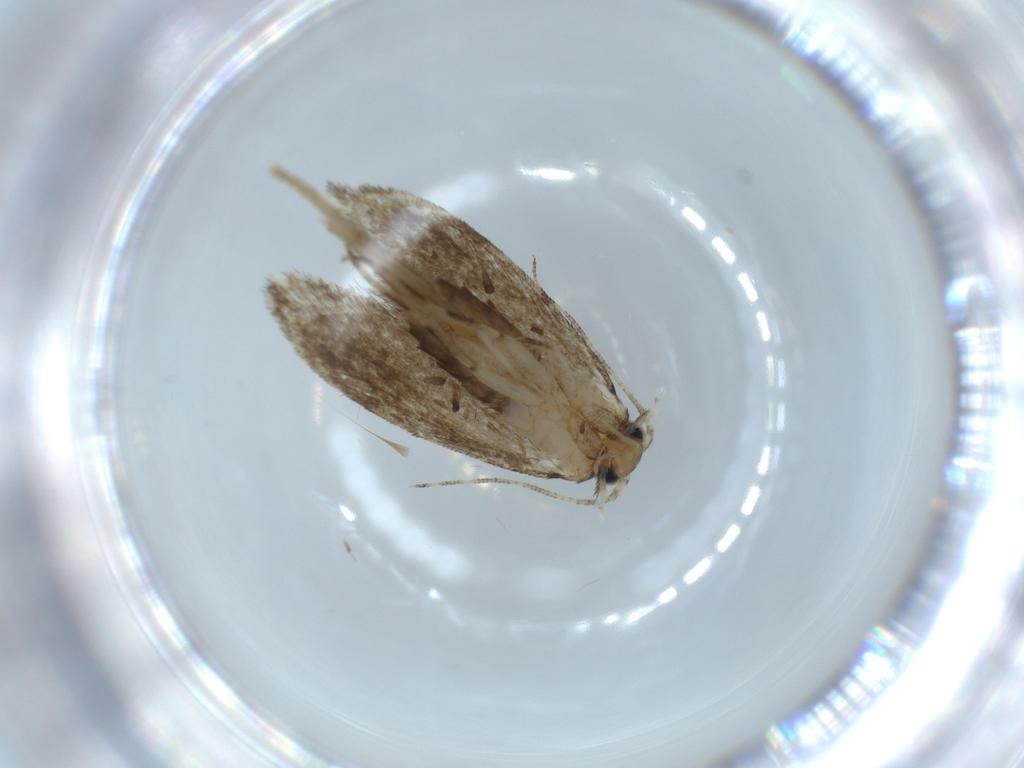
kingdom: Animalia
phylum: Arthropoda
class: Insecta
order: Lepidoptera
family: Tineidae
